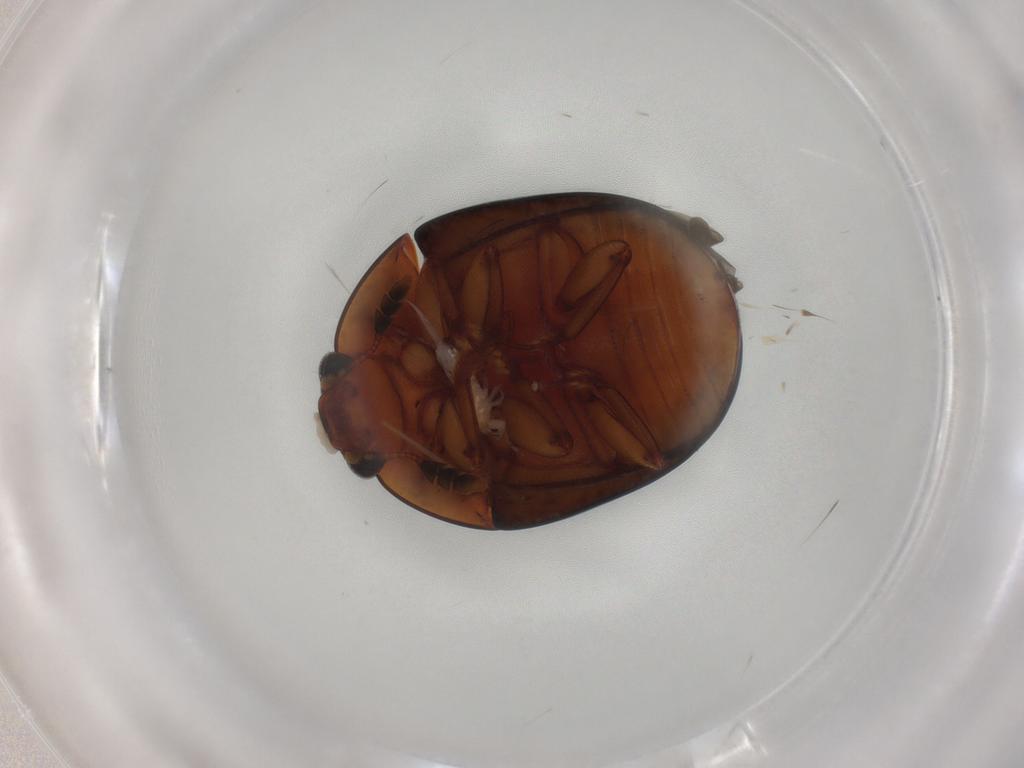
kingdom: Animalia
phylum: Arthropoda
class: Insecta
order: Coleoptera
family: Nitidulidae
